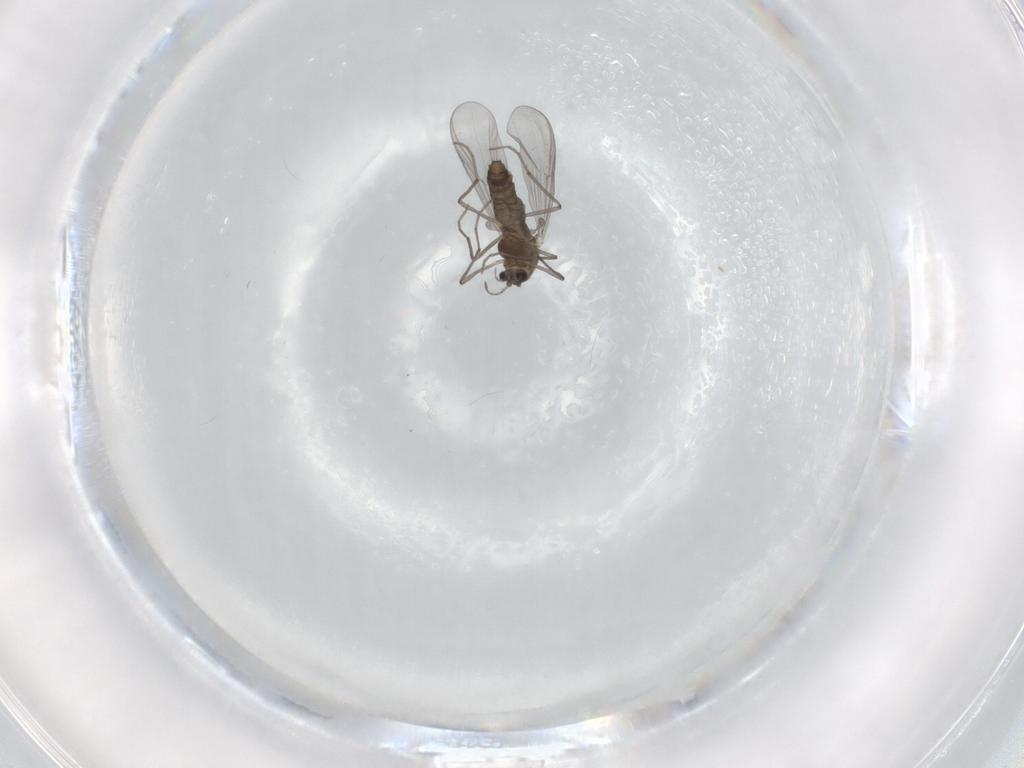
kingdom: Animalia
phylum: Arthropoda
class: Insecta
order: Diptera
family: Chironomidae
